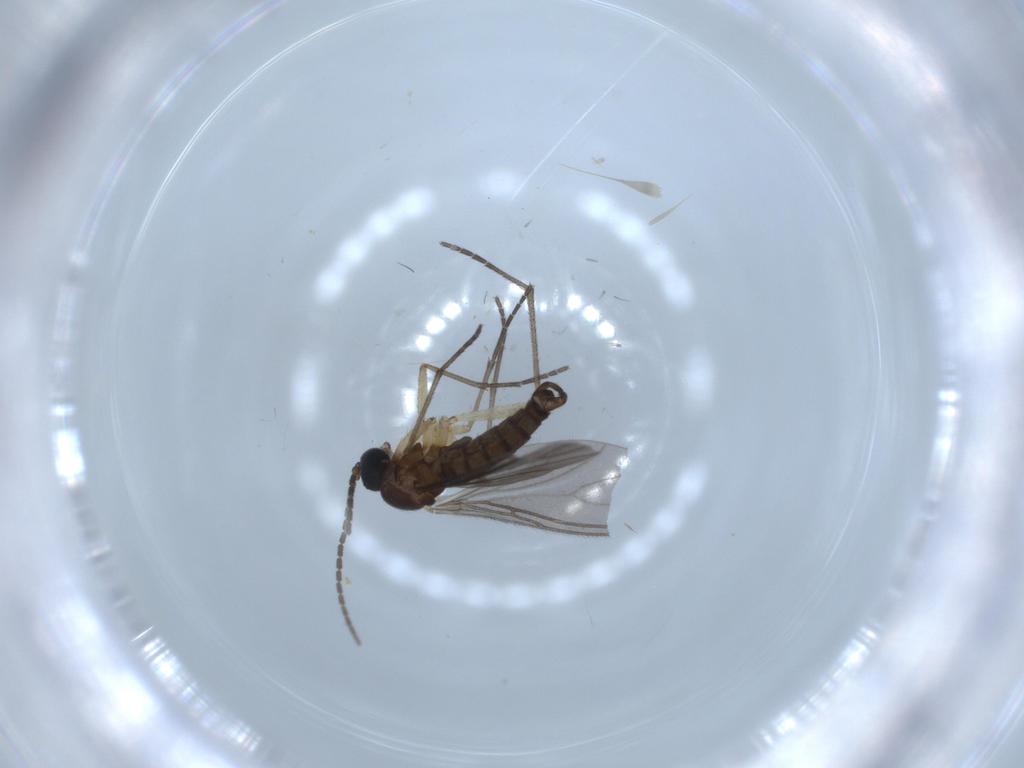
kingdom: Animalia
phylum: Arthropoda
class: Insecta
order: Diptera
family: Sciaridae
